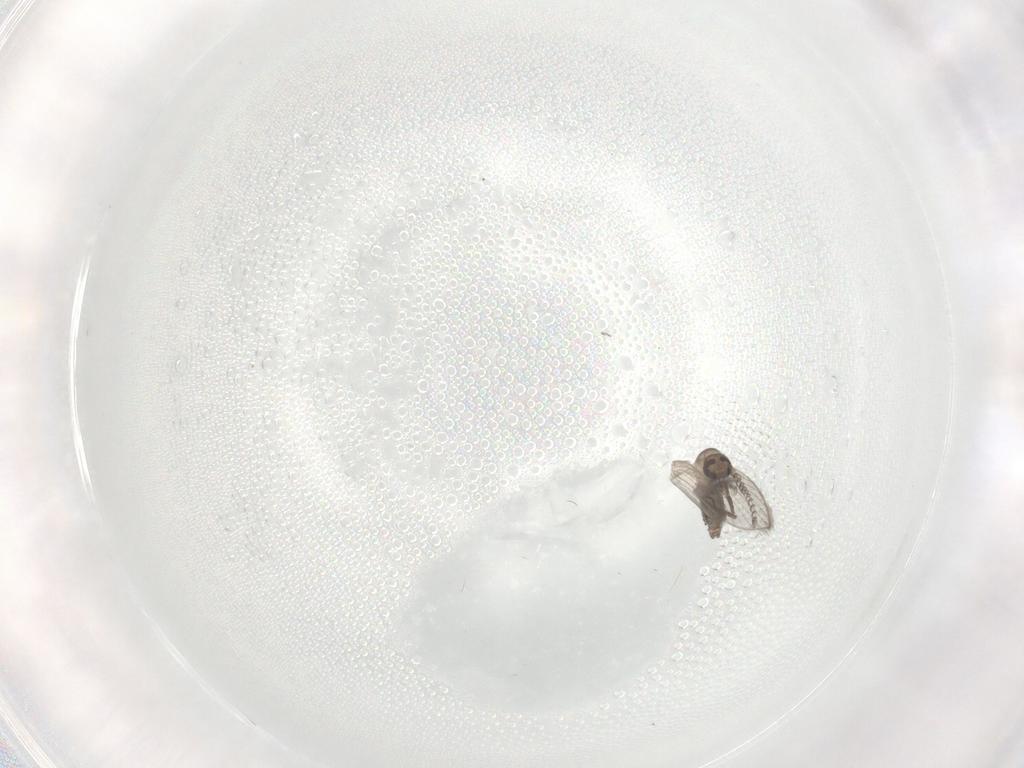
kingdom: Animalia
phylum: Arthropoda
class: Insecta
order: Diptera
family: Psychodidae
